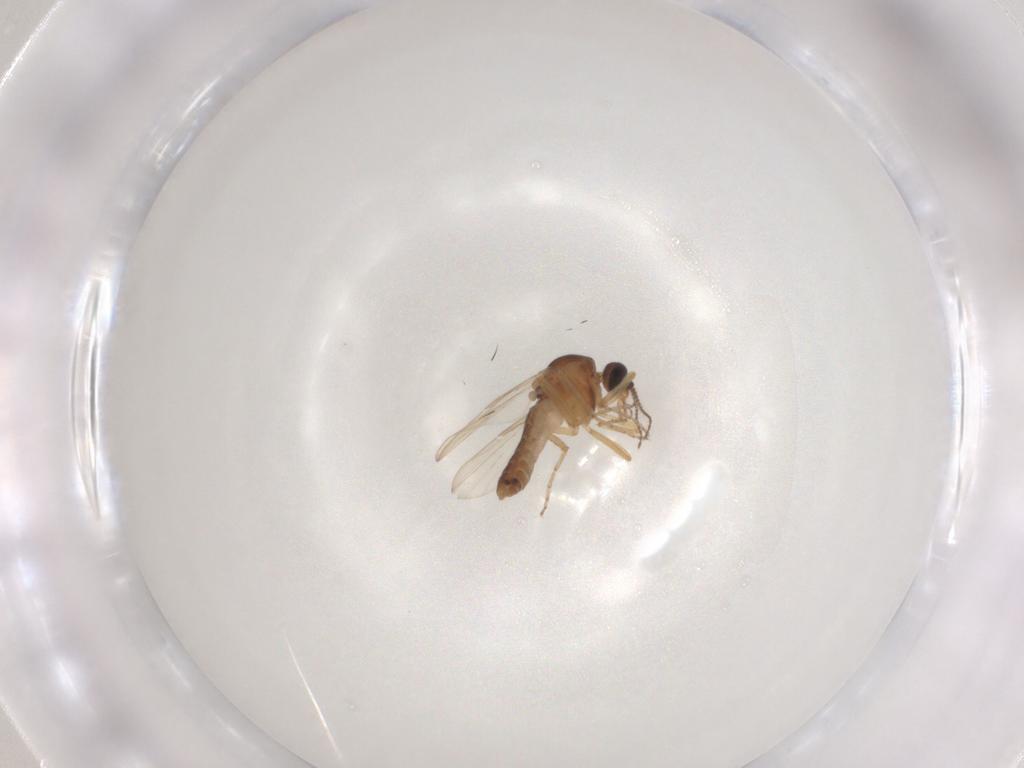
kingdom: Animalia
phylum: Arthropoda
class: Insecta
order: Diptera
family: Ceratopogonidae
